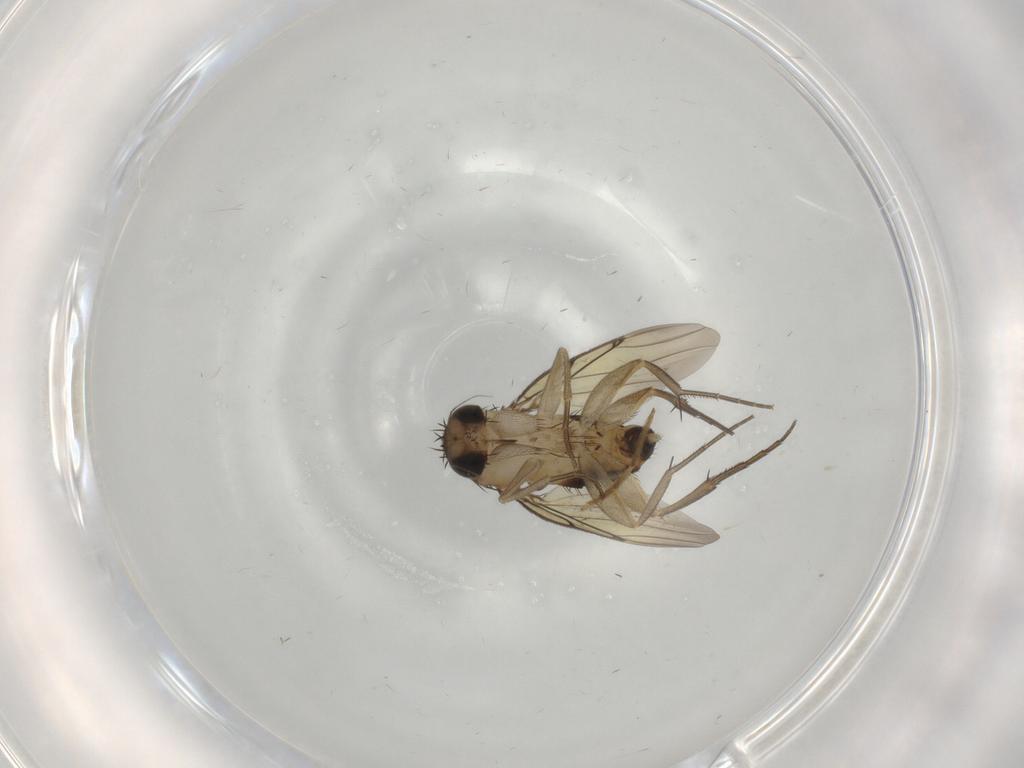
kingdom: Animalia
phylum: Arthropoda
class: Insecta
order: Diptera
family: Chironomidae
